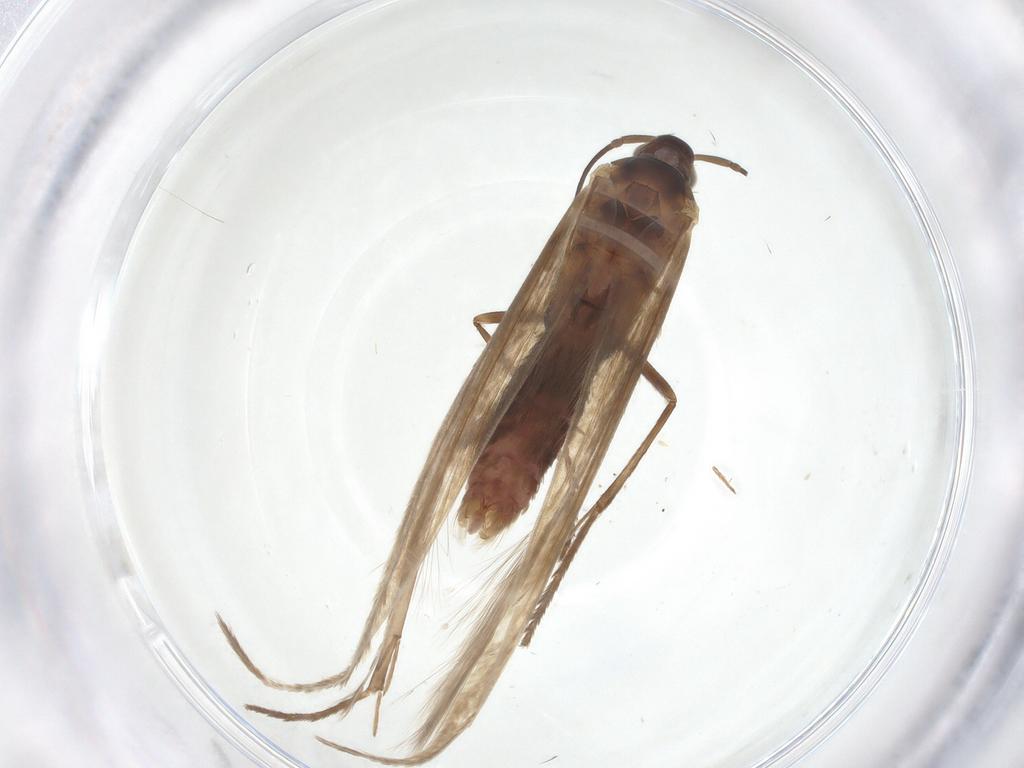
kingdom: Animalia
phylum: Arthropoda
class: Insecta
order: Lepidoptera
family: Coleophoridae
